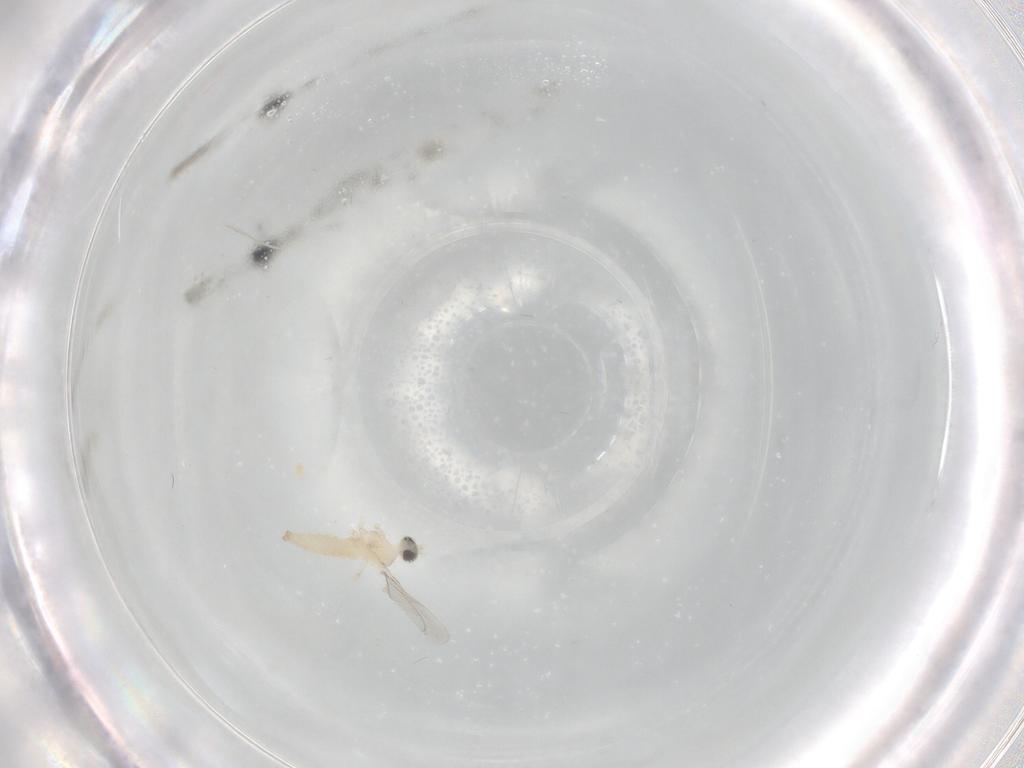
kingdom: Animalia
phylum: Arthropoda
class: Insecta
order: Diptera
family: Cecidomyiidae
